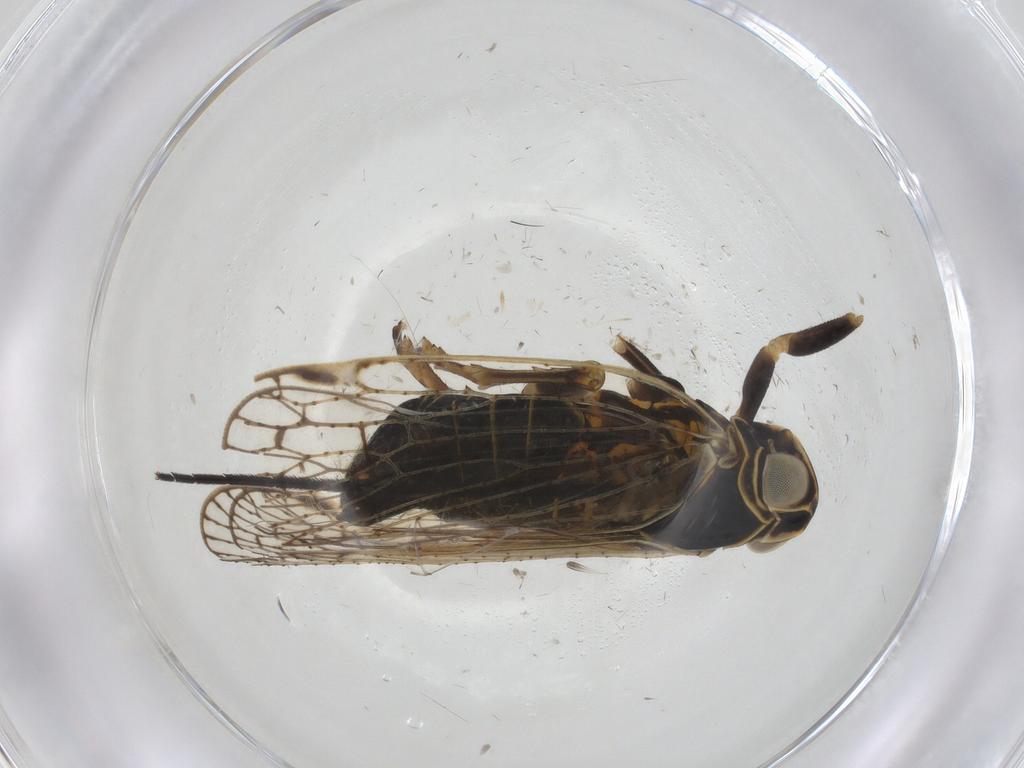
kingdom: Animalia
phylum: Arthropoda
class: Insecta
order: Hemiptera
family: Cixiidae
